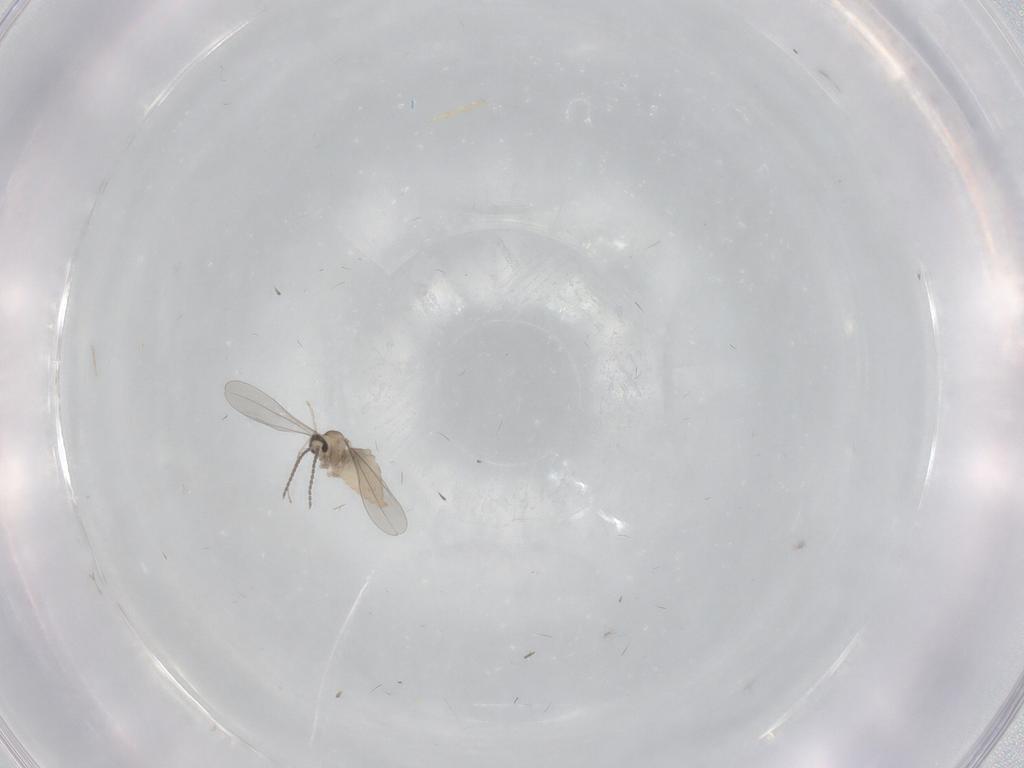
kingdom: Animalia
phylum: Arthropoda
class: Insecta
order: Diptera
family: Cecidomyiidae
